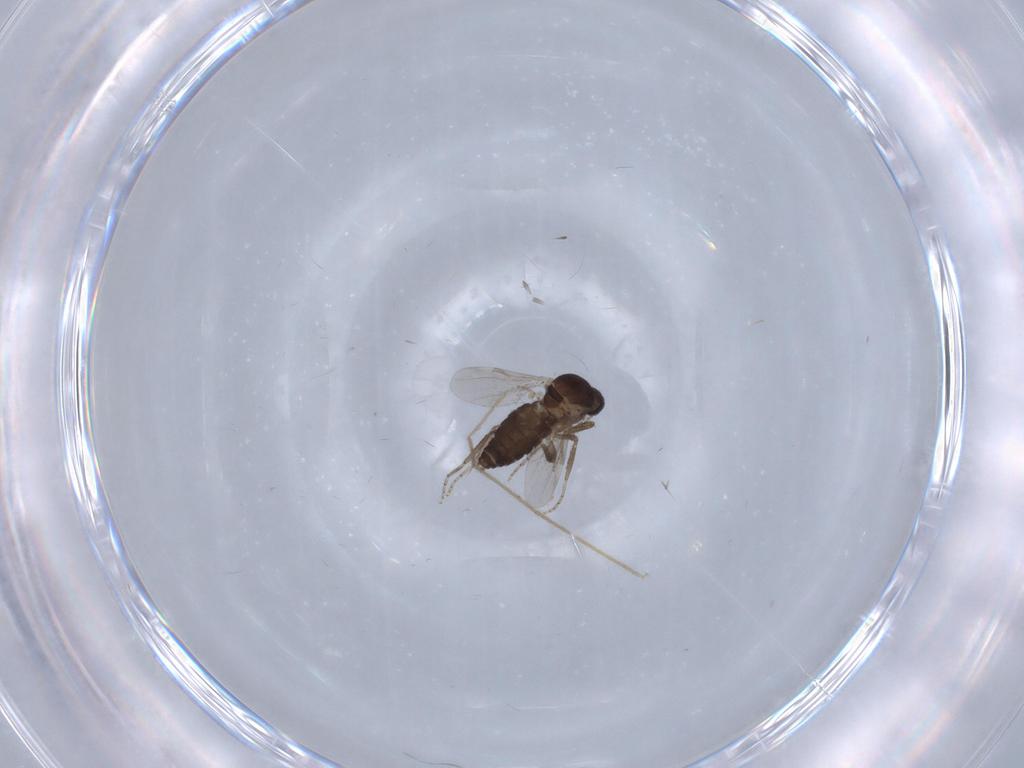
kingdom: Animalia
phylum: Arthropoda
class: Insecta
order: Diptera
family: Ceratopogonidae
